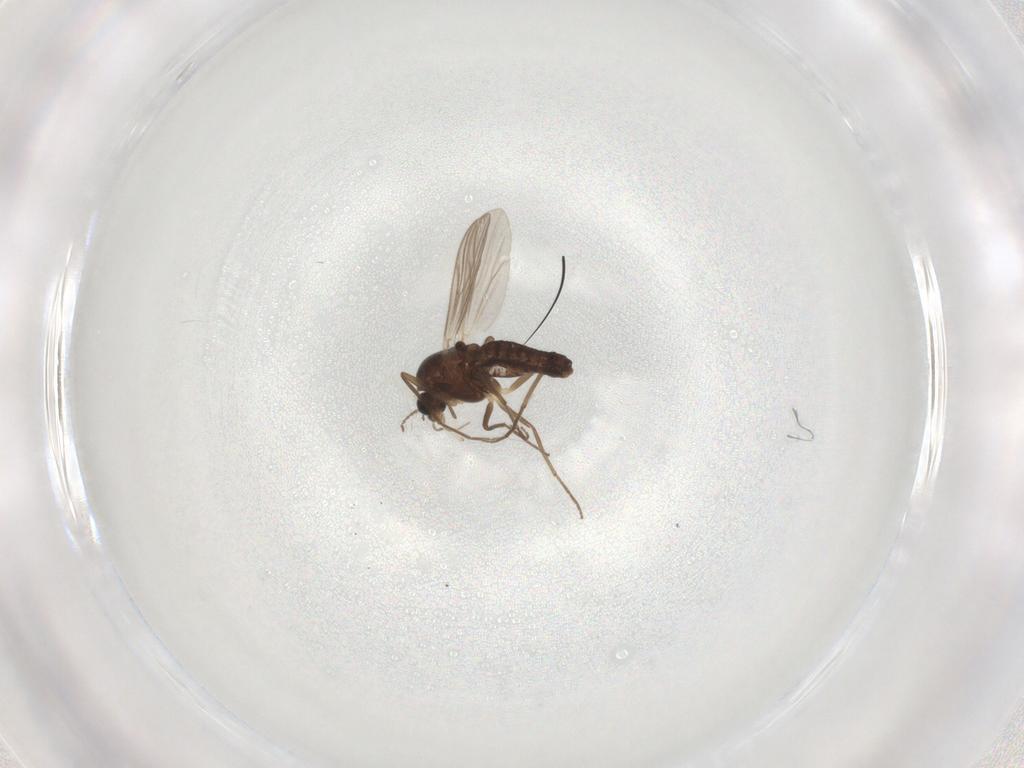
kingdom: Animalia
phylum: Arthropoda
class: Insecta
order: Diptera
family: Chironomidae
